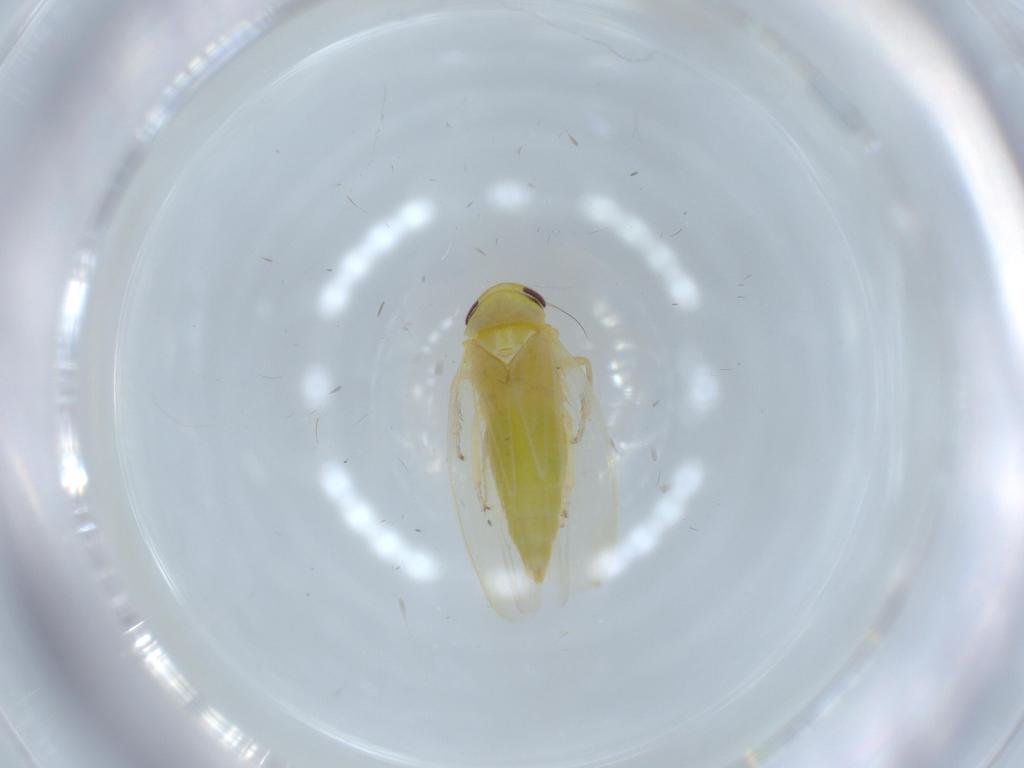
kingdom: Animalia
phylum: Arthropoda
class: Insecta
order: Hemiptera
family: Cicadellidae
